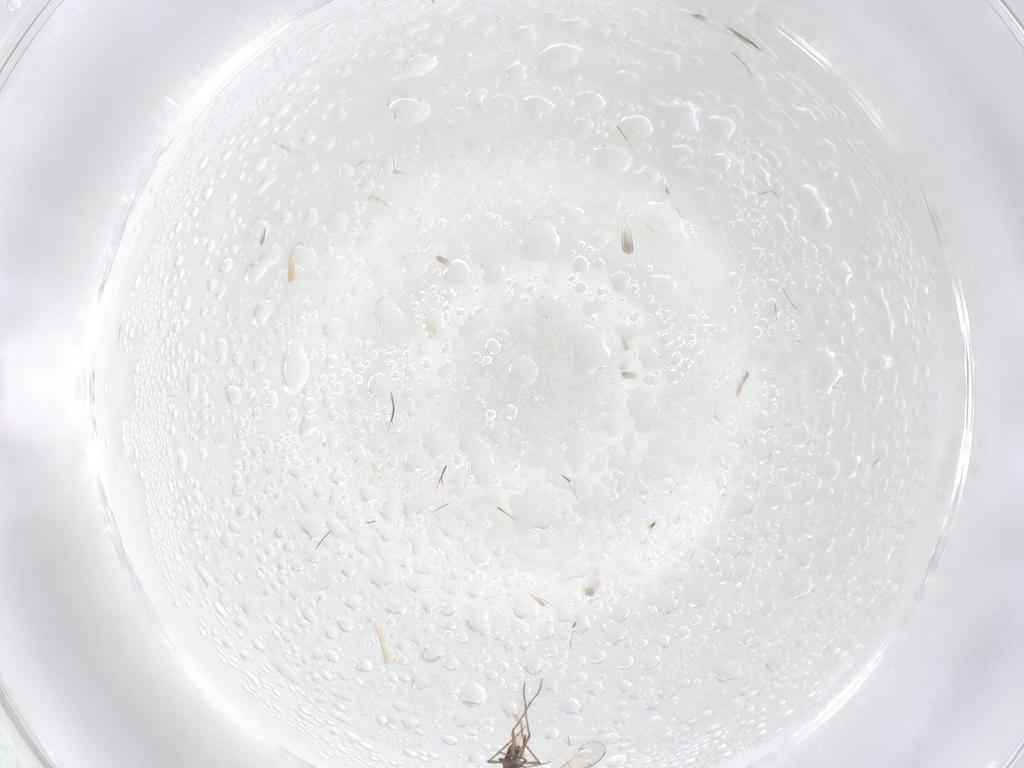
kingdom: Animalia
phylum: Arthropoda
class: Insecta
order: Diptera
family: Chironomidae
